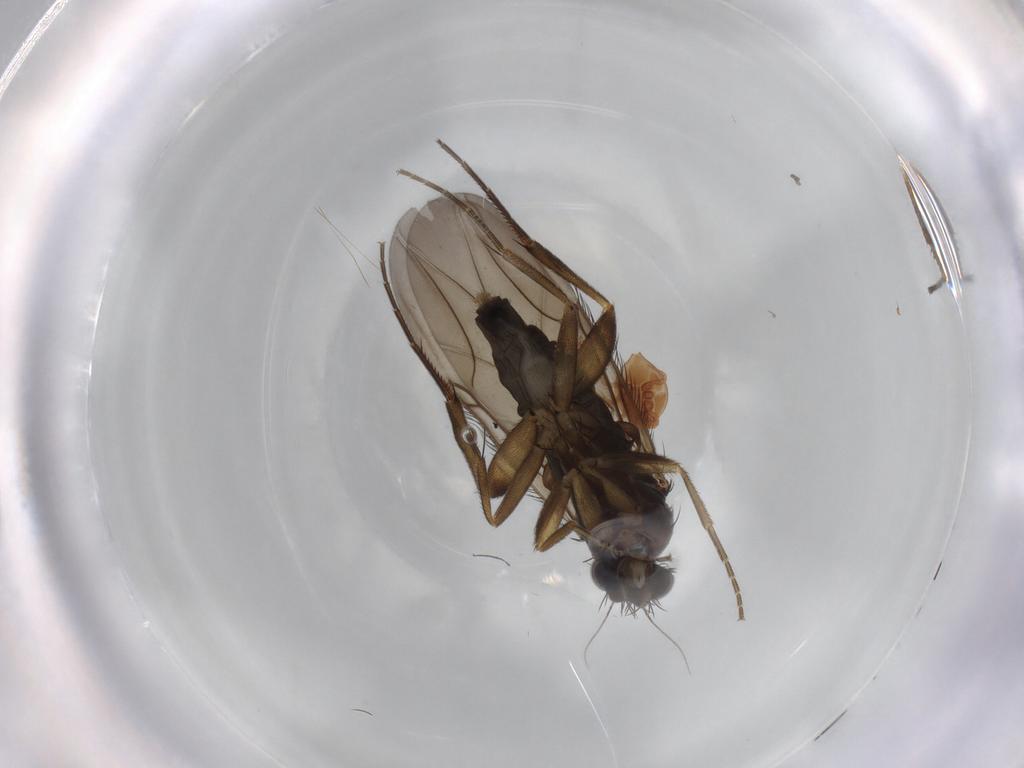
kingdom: Animalia
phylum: Arthropoda
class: Insecta
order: Diptera
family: Phoridae
